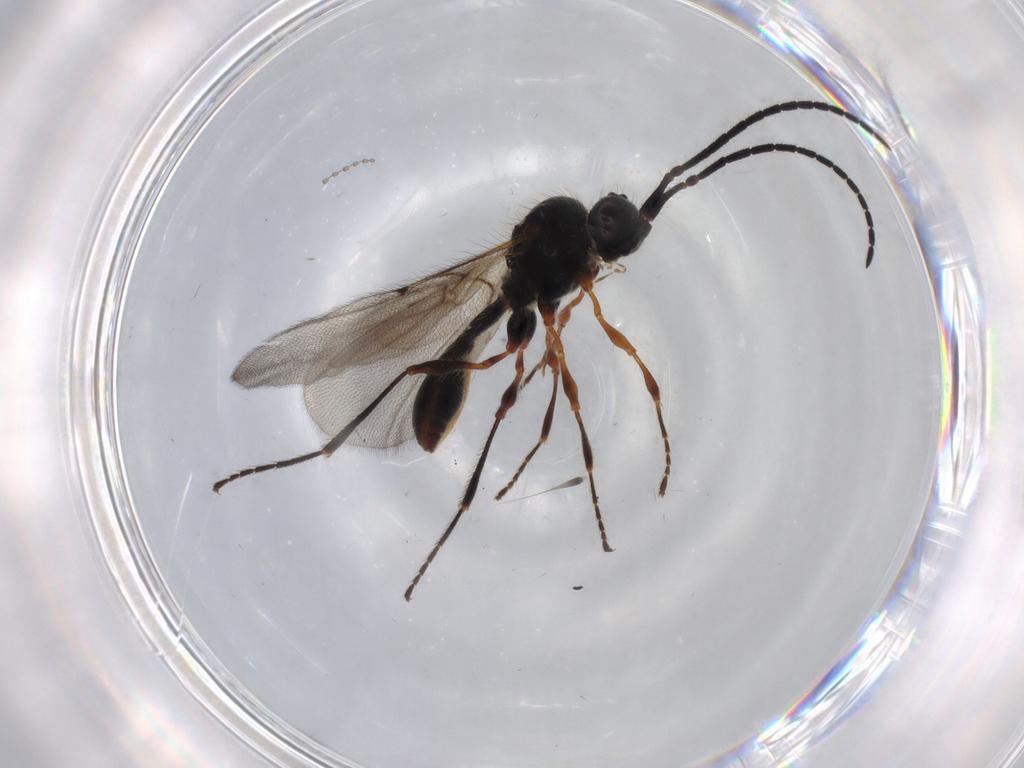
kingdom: Animalia
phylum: Arthropoda
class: Insecta
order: Hymenoptera
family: Diapriidae
